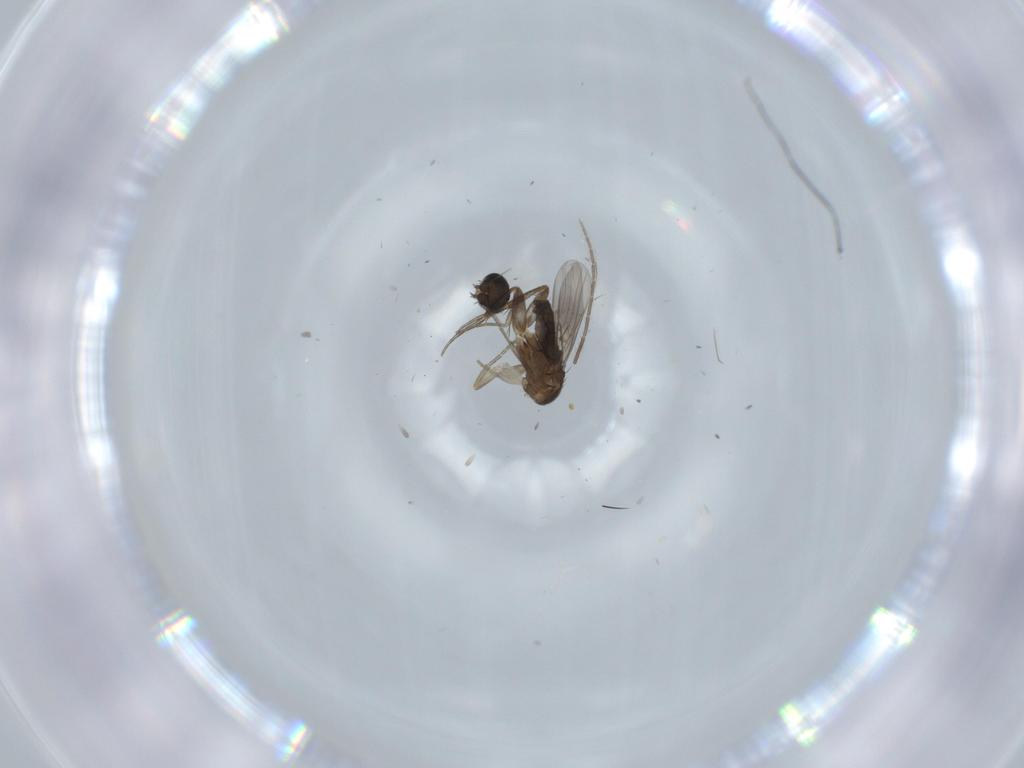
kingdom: Animalia
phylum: Arthropoda
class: Insecta
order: Diptera
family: Phoridae
